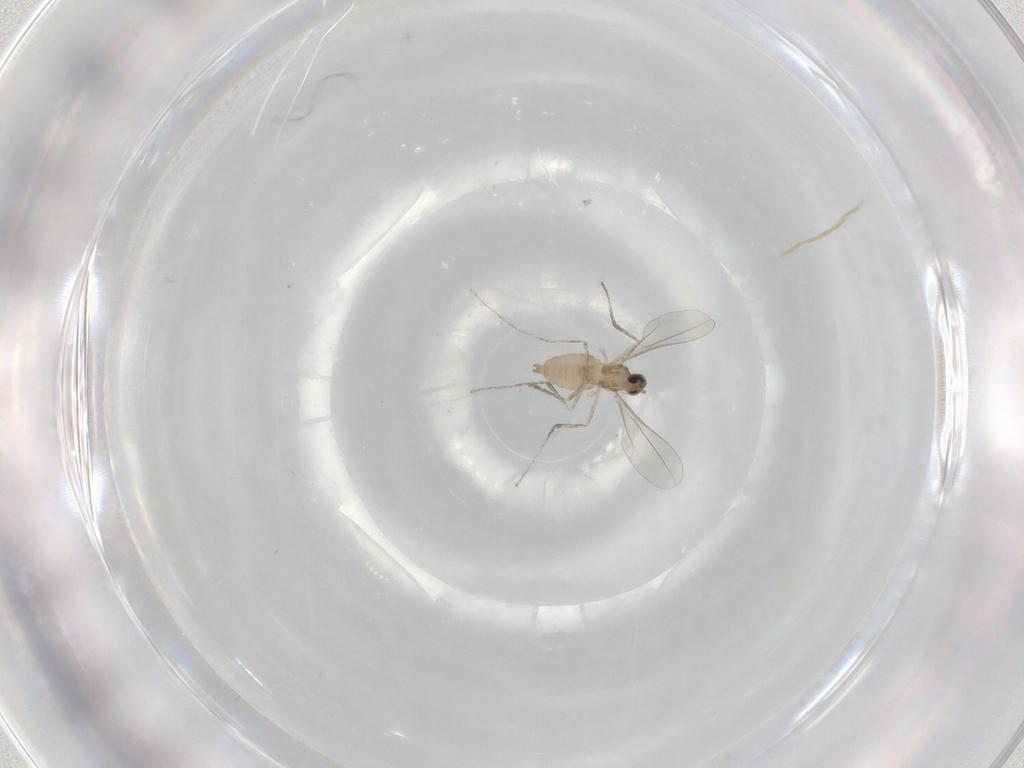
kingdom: Animalia
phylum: Arthropoda
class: Insecta
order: Diptera
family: Cecidomyiidae
